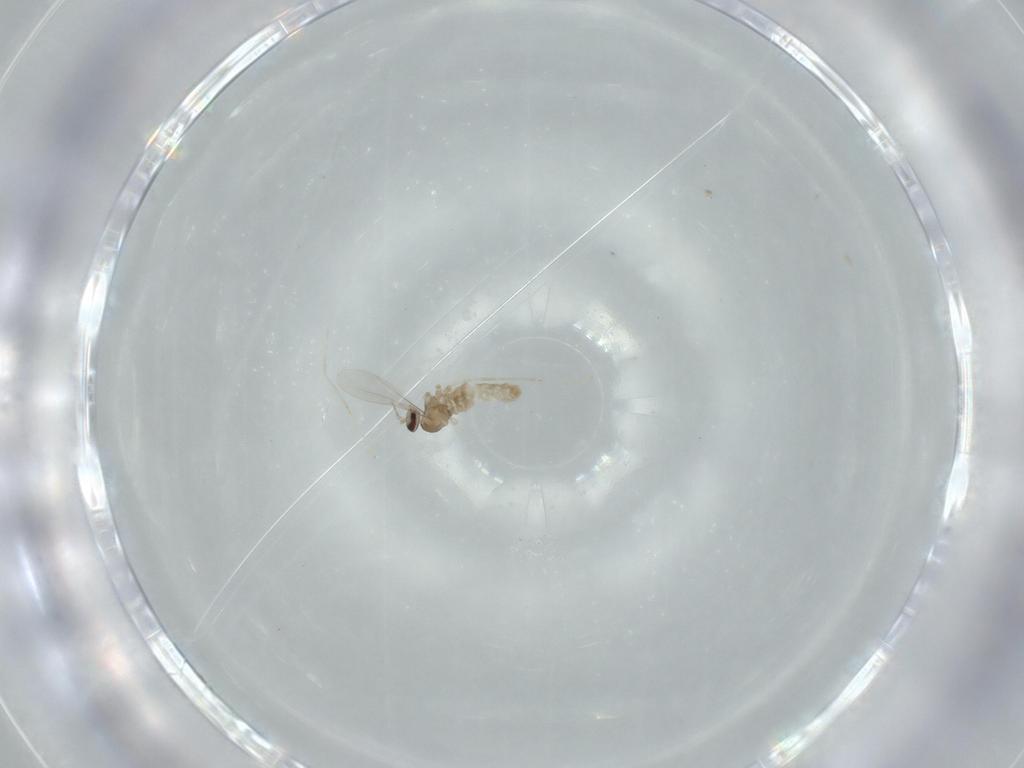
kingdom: Animalia
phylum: Arthropoda
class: Insecta
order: Diptera
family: Cecidomyiidae
